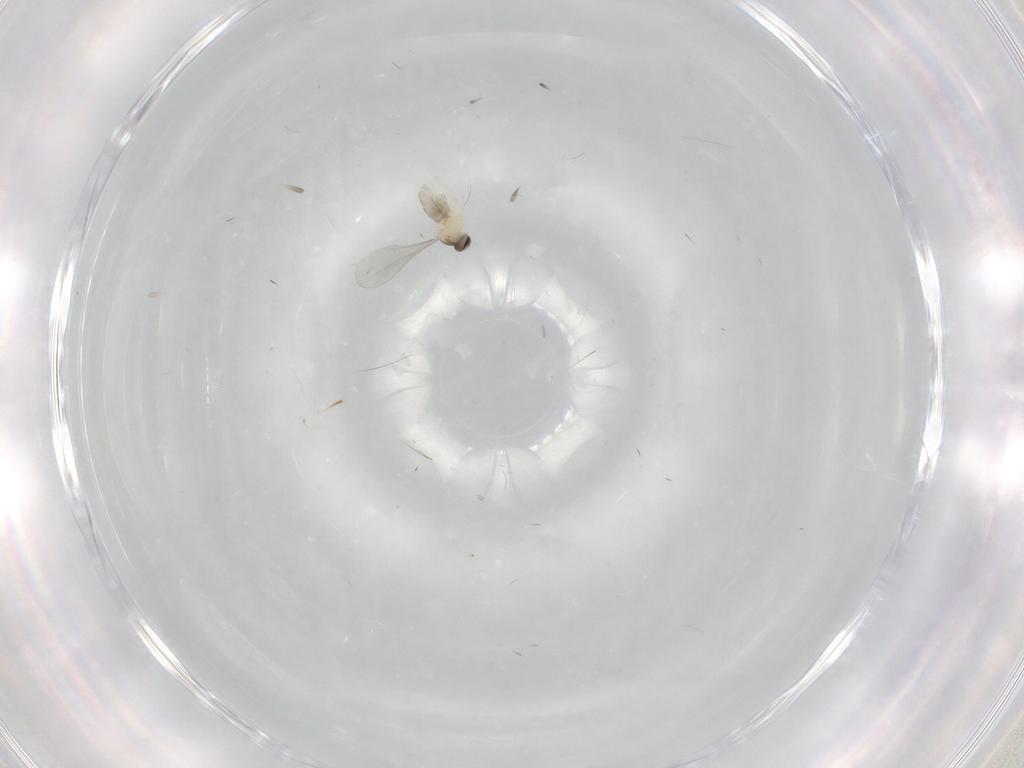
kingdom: Animalia
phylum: Arthropoda
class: Insecta
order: Diptera
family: Cecidomyiidae
